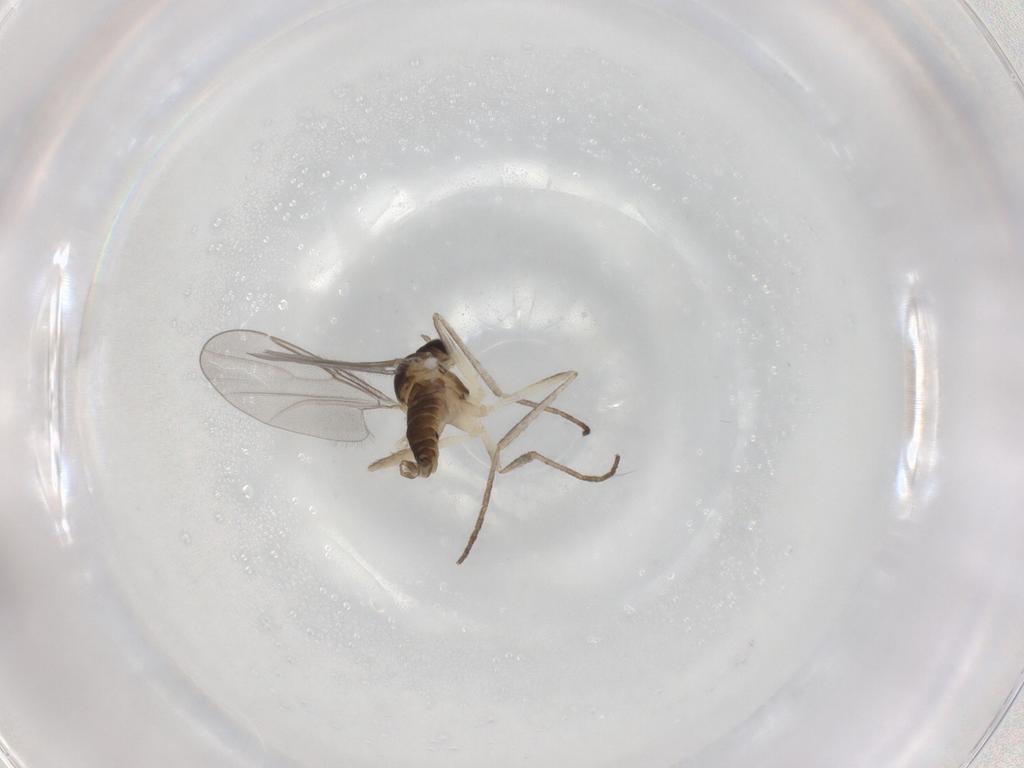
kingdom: Animalia
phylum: Arthropoda
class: Insecta
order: Diptera
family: Cecidomyiidae
